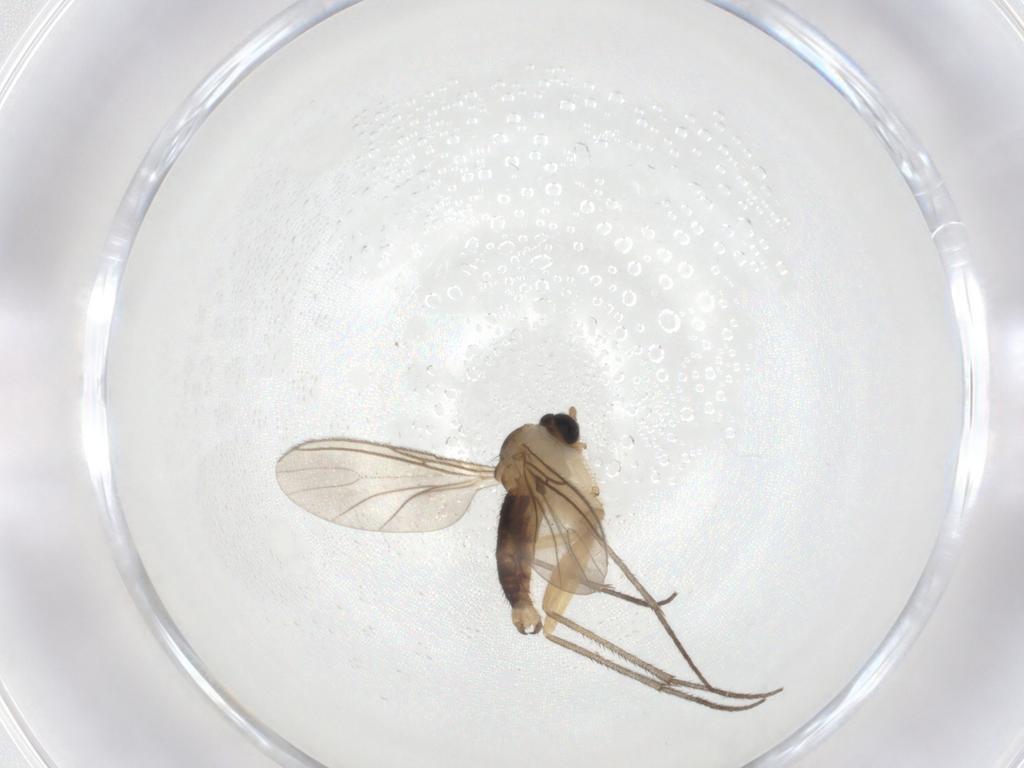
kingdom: Animalia
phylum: Arthropoda
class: Insecta
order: Diptera
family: Sciaridae
